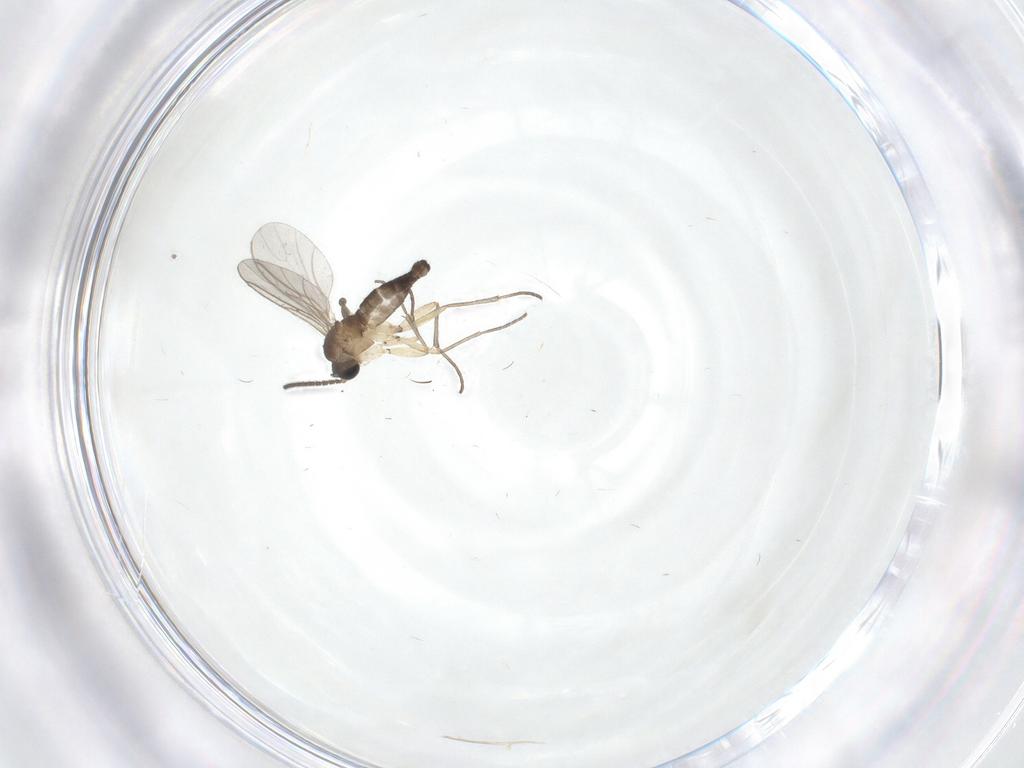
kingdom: Animalia
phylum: Arthropoda
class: Insecta
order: Diptera
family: Sciaridae
